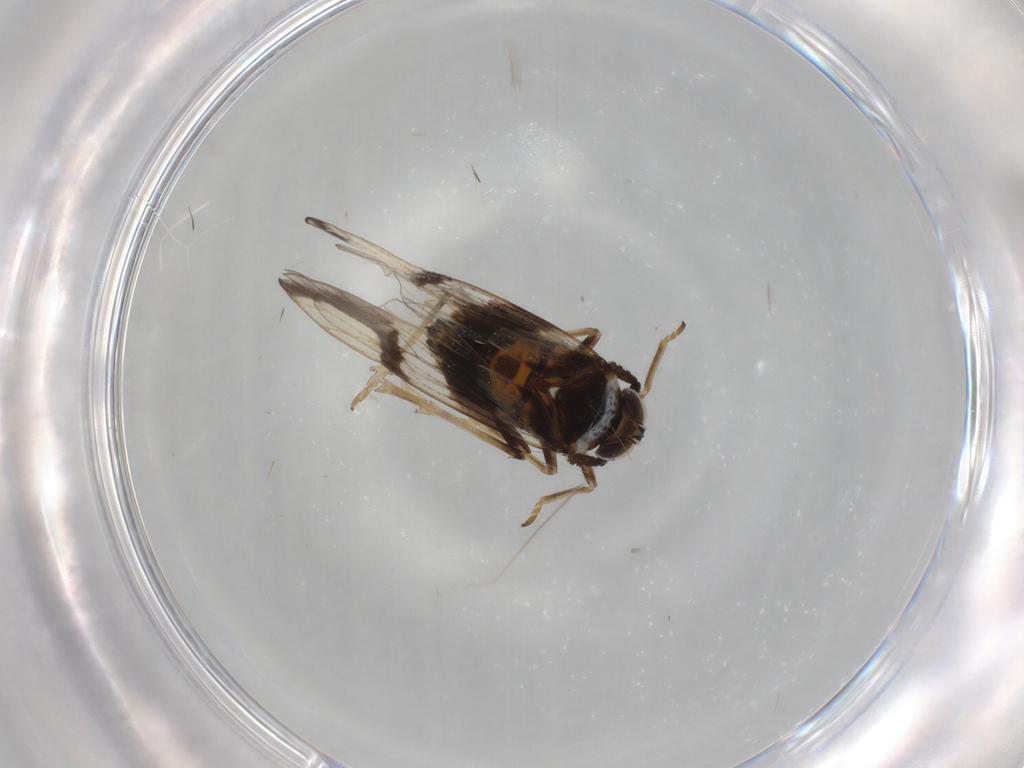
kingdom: Animalia
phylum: Arthropoda
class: Insecta
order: Hemiptera
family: Delphacidae
